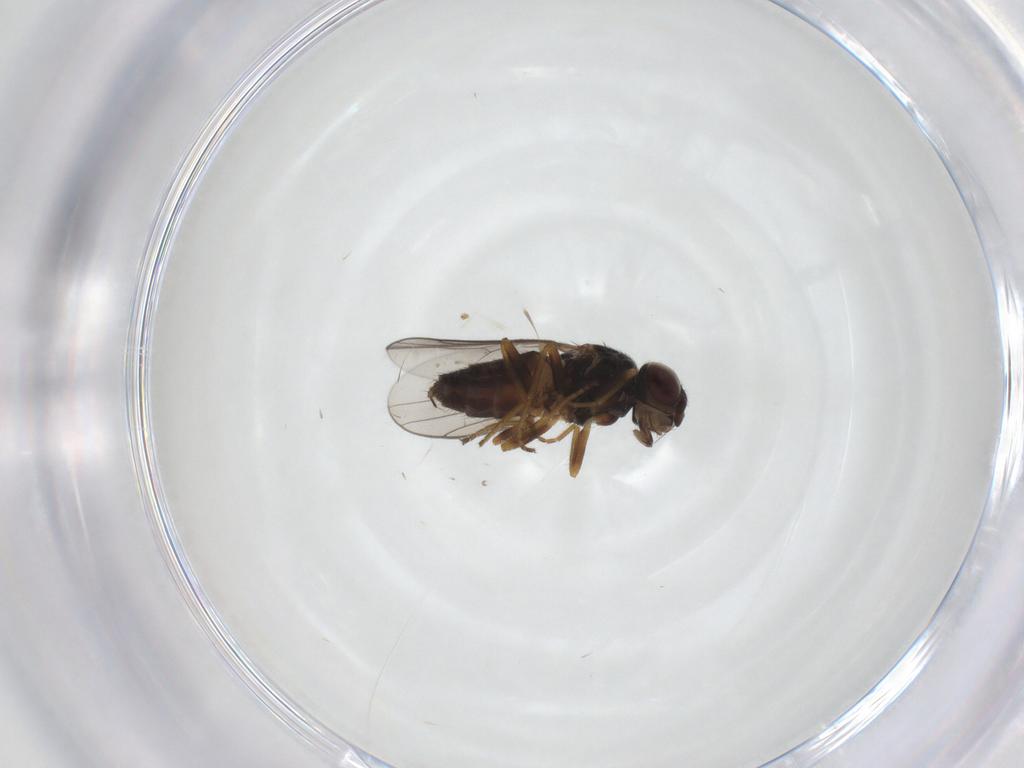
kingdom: Animalia
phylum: Arthropoda
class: Insecta
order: Diptera
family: Chloropidae
